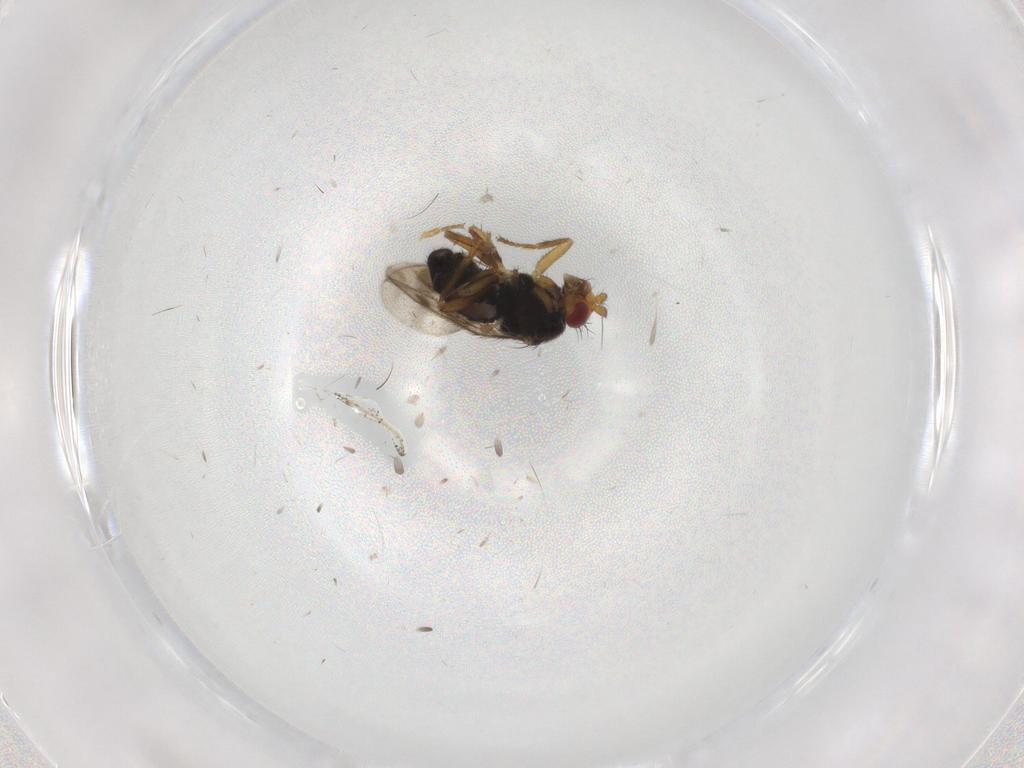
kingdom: Animalia
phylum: Arthropoda
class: Insecta
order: Diptera
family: Sphaeroceridae
